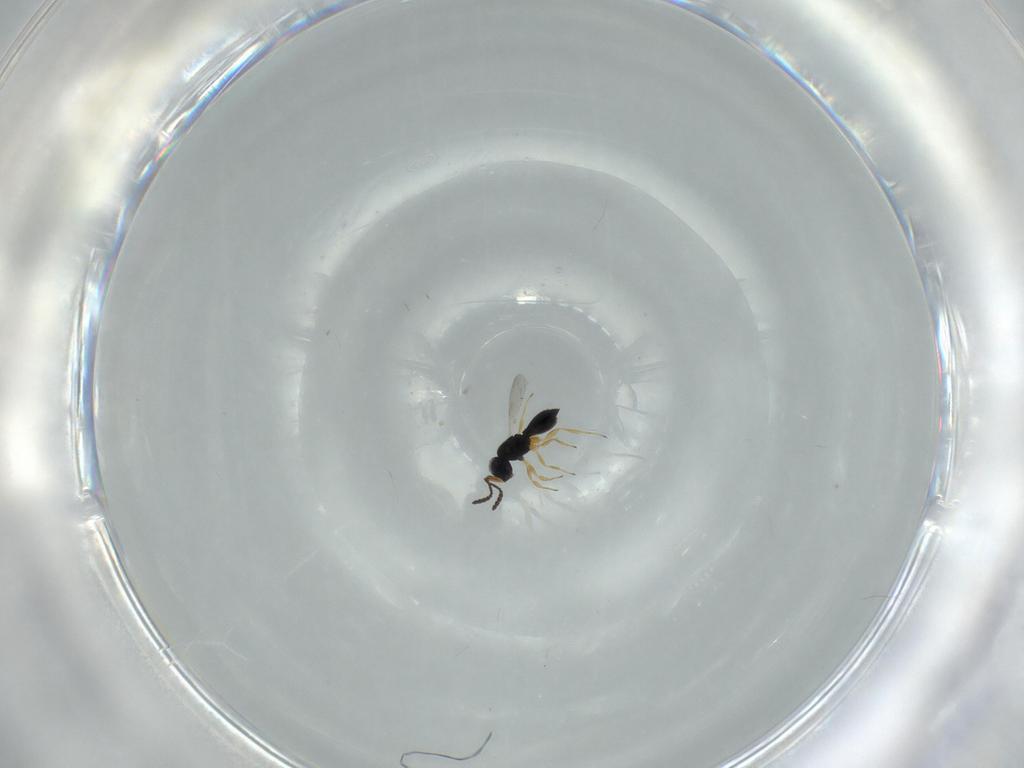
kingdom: Animalia
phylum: Arthropoda
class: Insecta
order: Hymenoptera
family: Scelionidae
